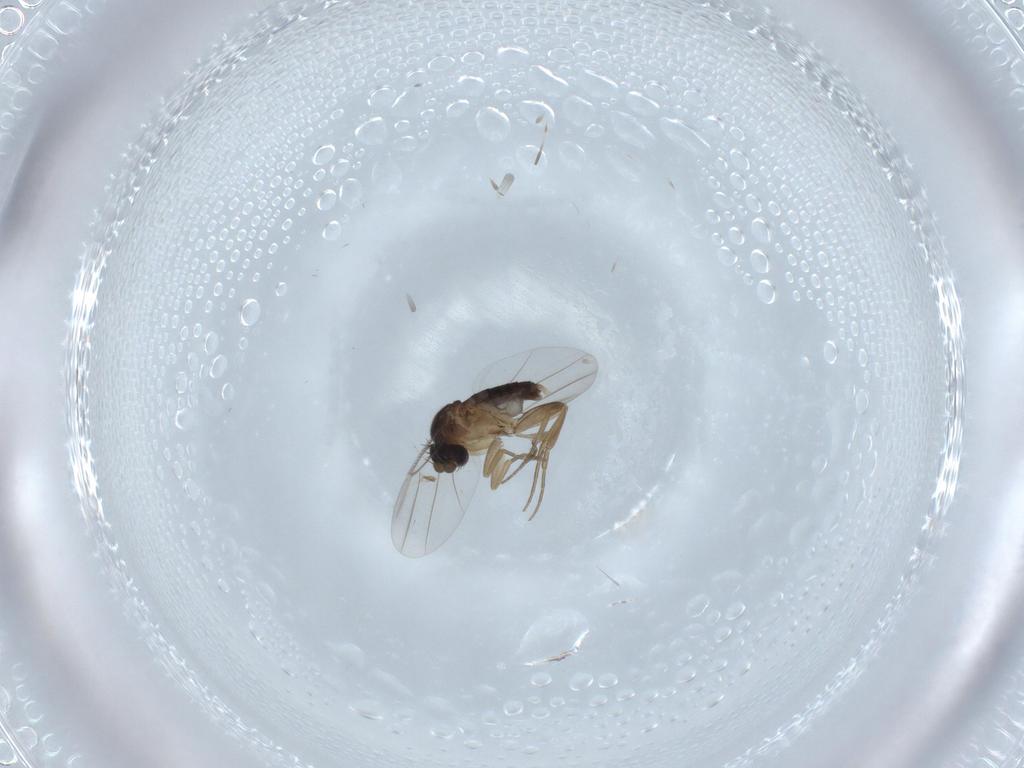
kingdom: Animalia
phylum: Arthropoda
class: Insecta
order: Diptera
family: Phoridae
